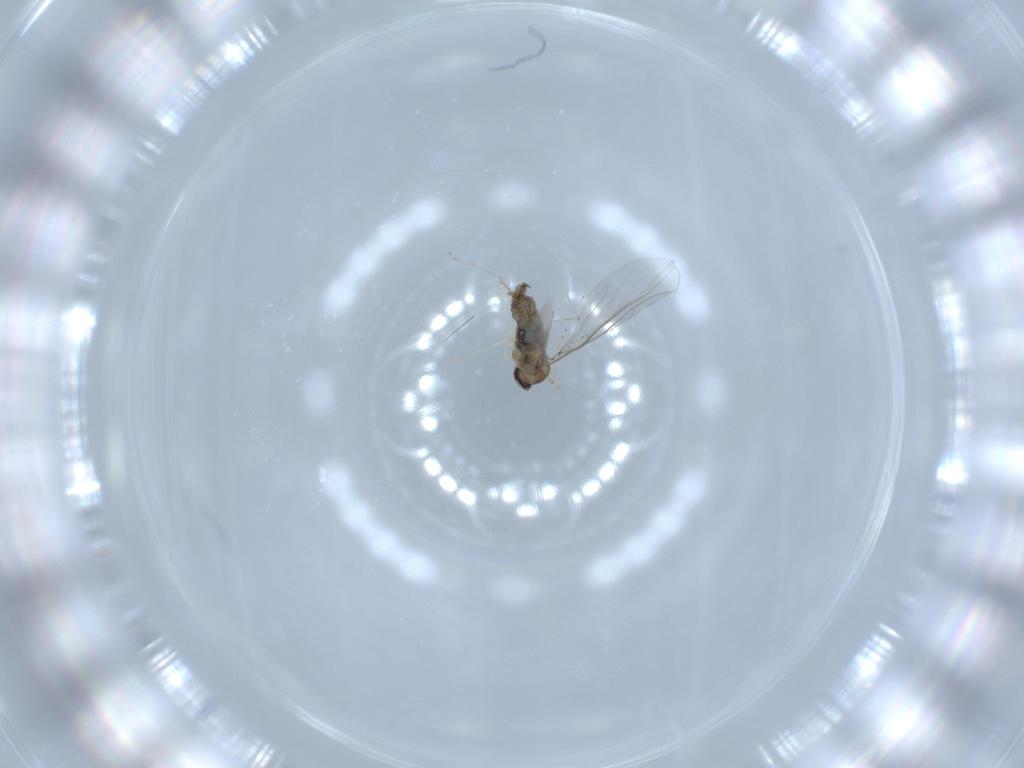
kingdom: Animalia
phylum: Arthropoda
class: Insecta
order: Diptera
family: Cecidomyiidae
